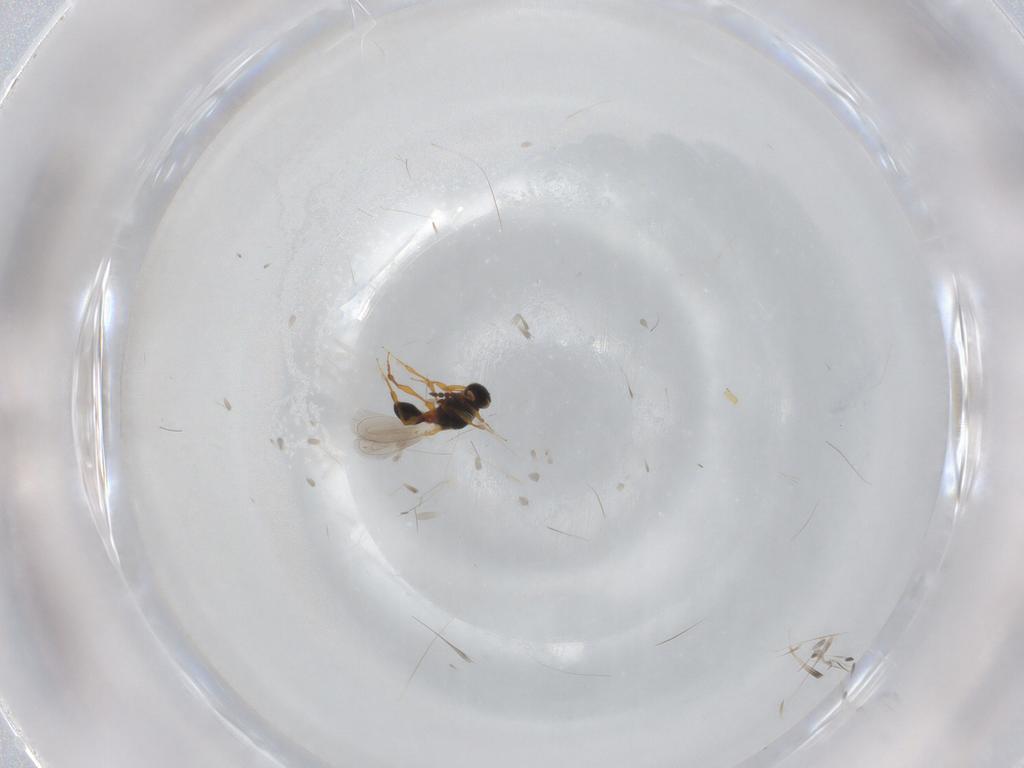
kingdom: Animalia
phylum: Arthropoda
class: Insecta
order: Hymenoptera
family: Platygastridae
